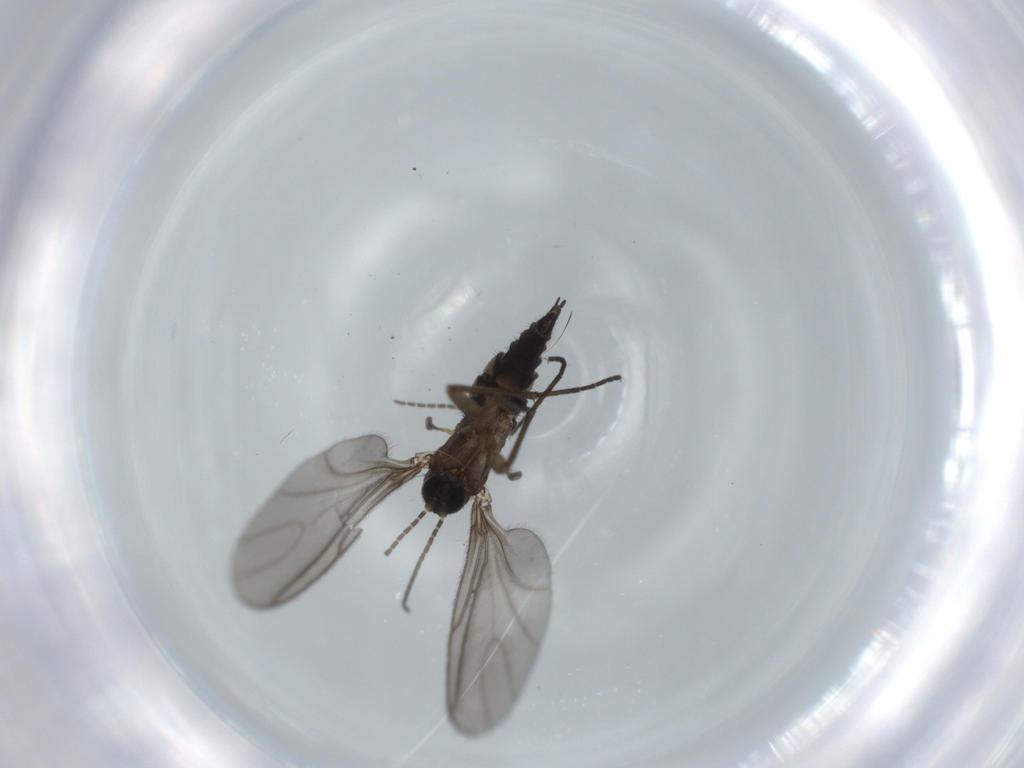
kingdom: Animalia
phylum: Arthropoda
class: Insecta
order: Diptera
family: Sciaridae
